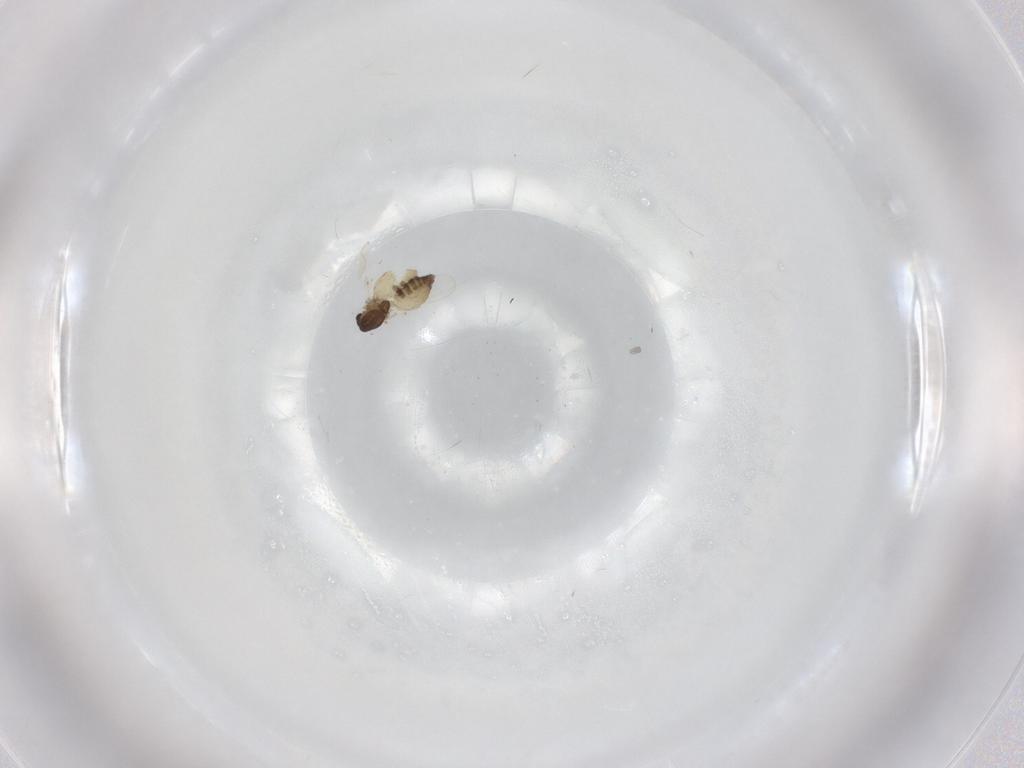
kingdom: Animalia
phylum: Arthropoda
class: Insecta
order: Diptera
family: Chironomidae
